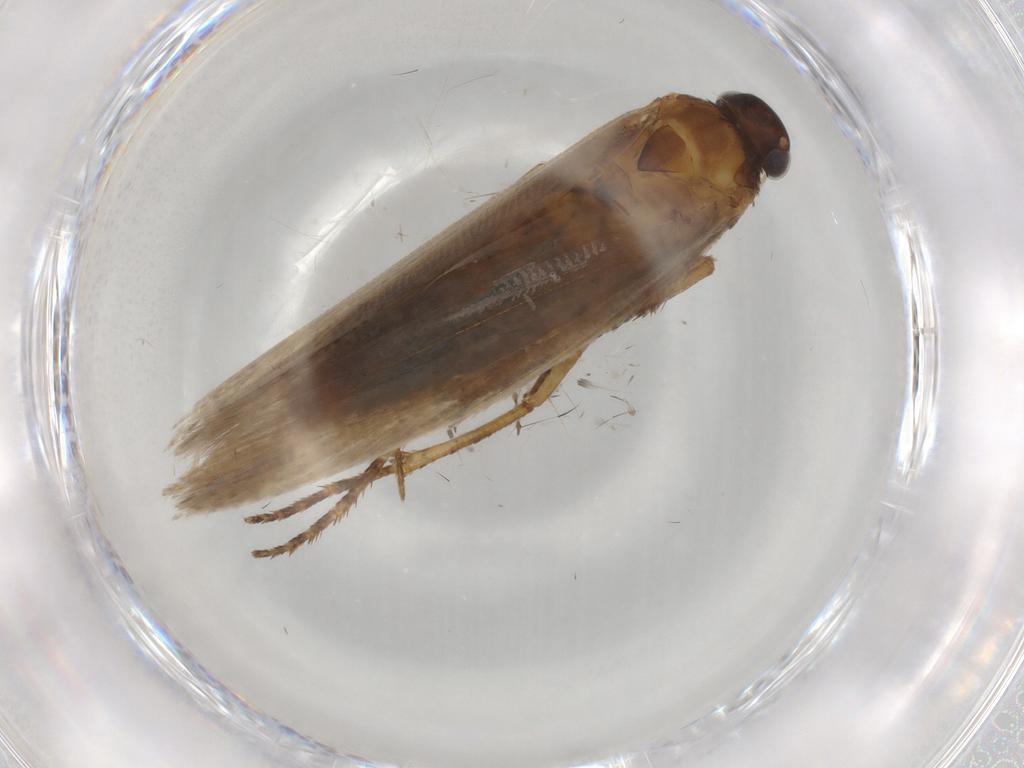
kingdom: Animalia
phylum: Arthropoda
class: Insecta
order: Lepidoptera
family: Gelechiidae
